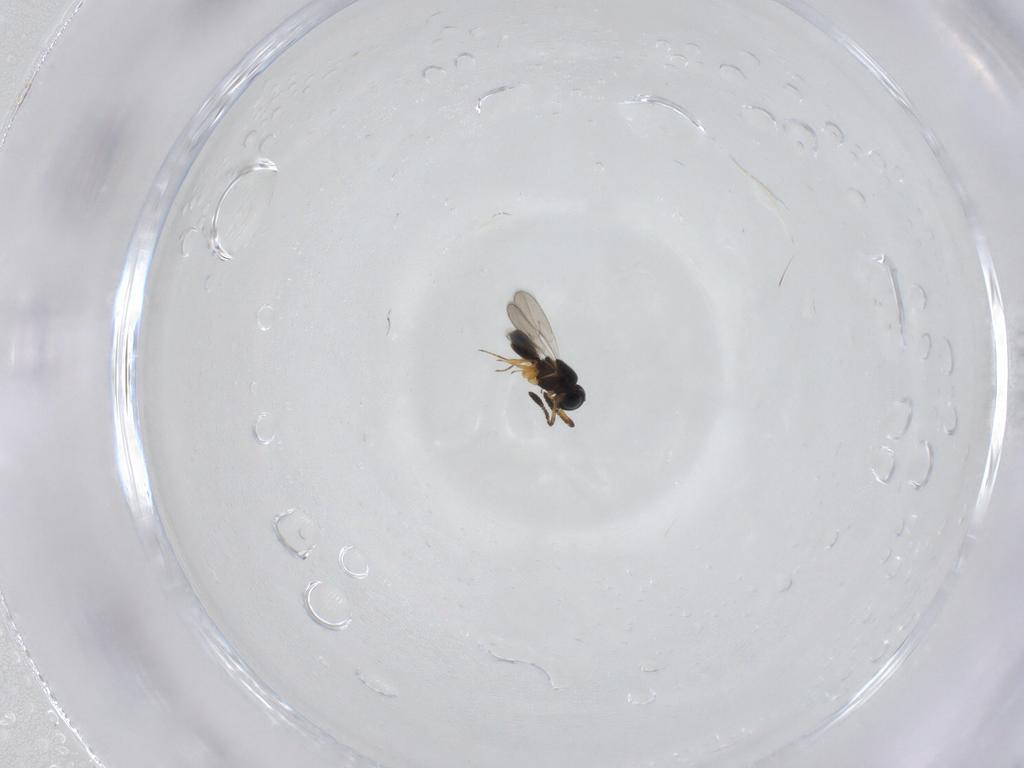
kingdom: Animalia
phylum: Arthropoda
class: Insecta
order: Hymenoptera
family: Scelionidae
